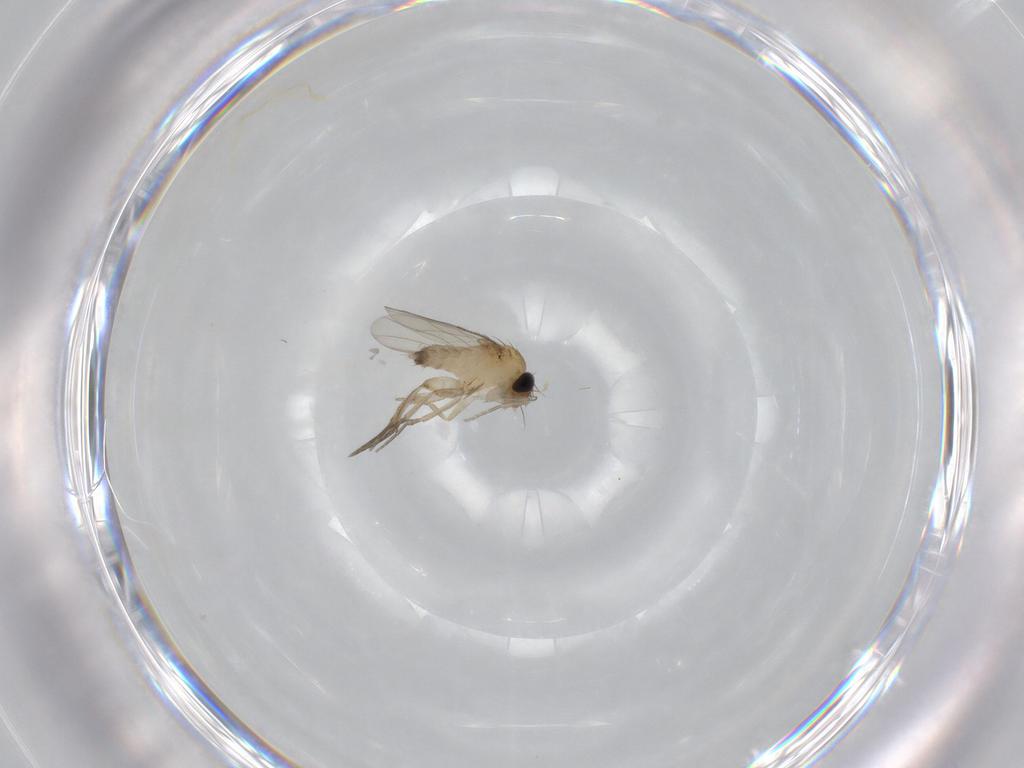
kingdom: Animalia
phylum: Arthropoda
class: Insecta
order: Diptera
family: Phoridae
